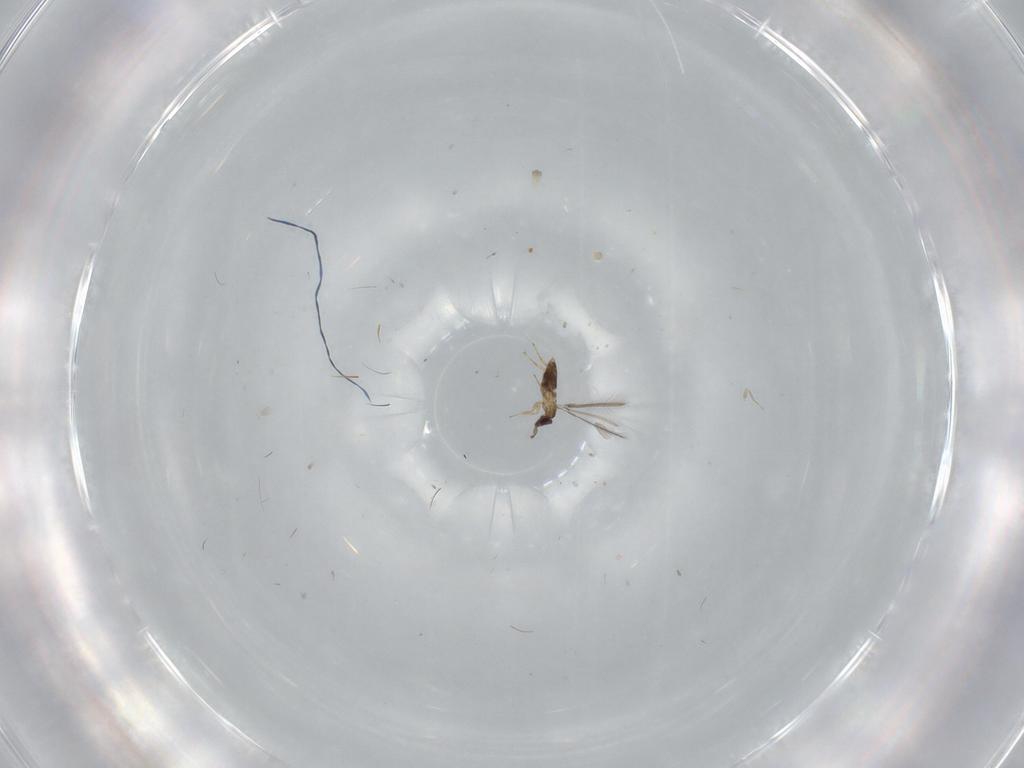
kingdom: Animalia
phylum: Arthropoda
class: Insecta
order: Hymenoptera
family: Mymaridae
